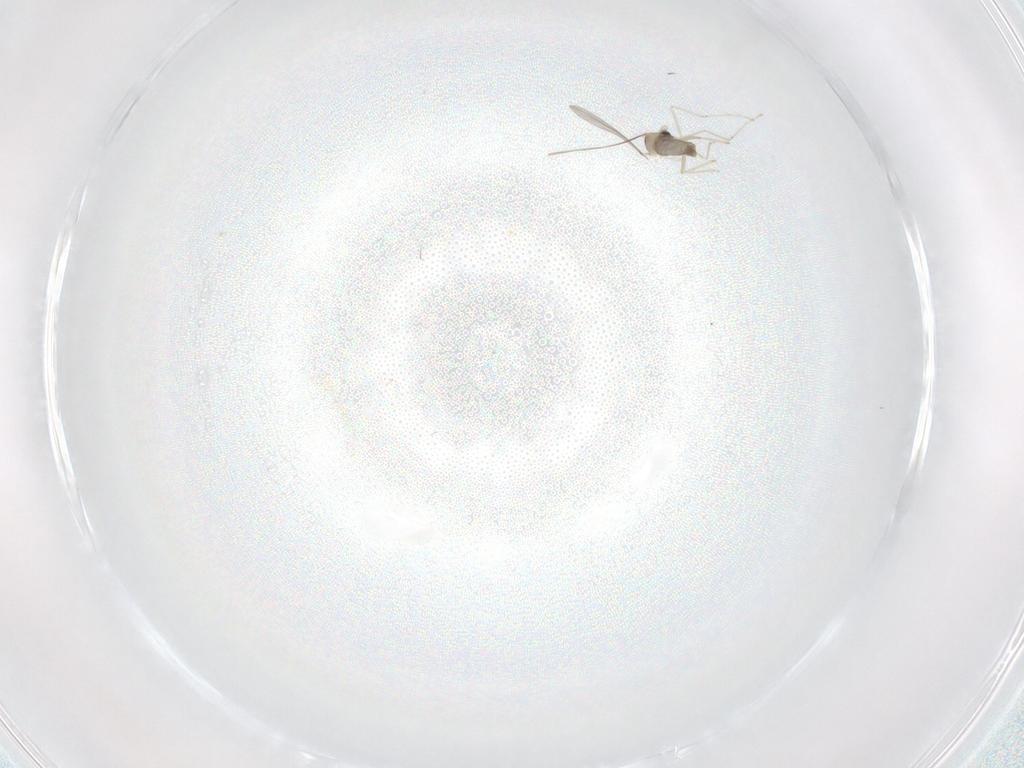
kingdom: Animalia
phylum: Arthropoda
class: Insecta
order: Diptera
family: Cecidomyiidae
